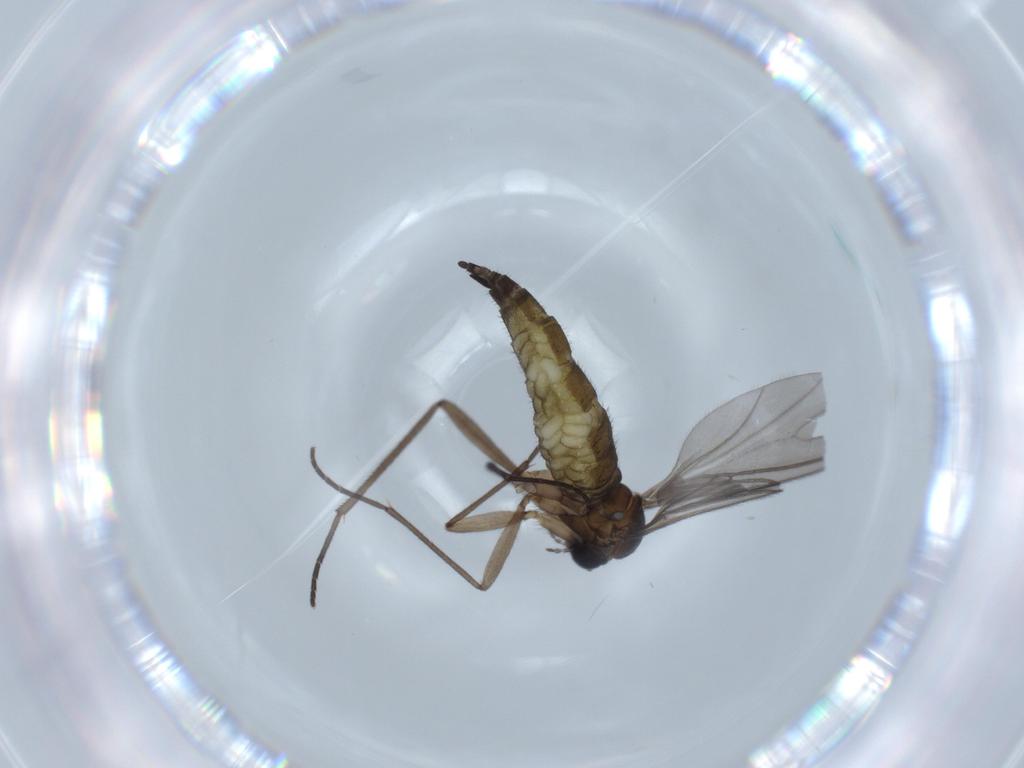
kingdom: Animalia
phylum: Arthropoda
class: Insecta
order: Diptera
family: Sciaridae
